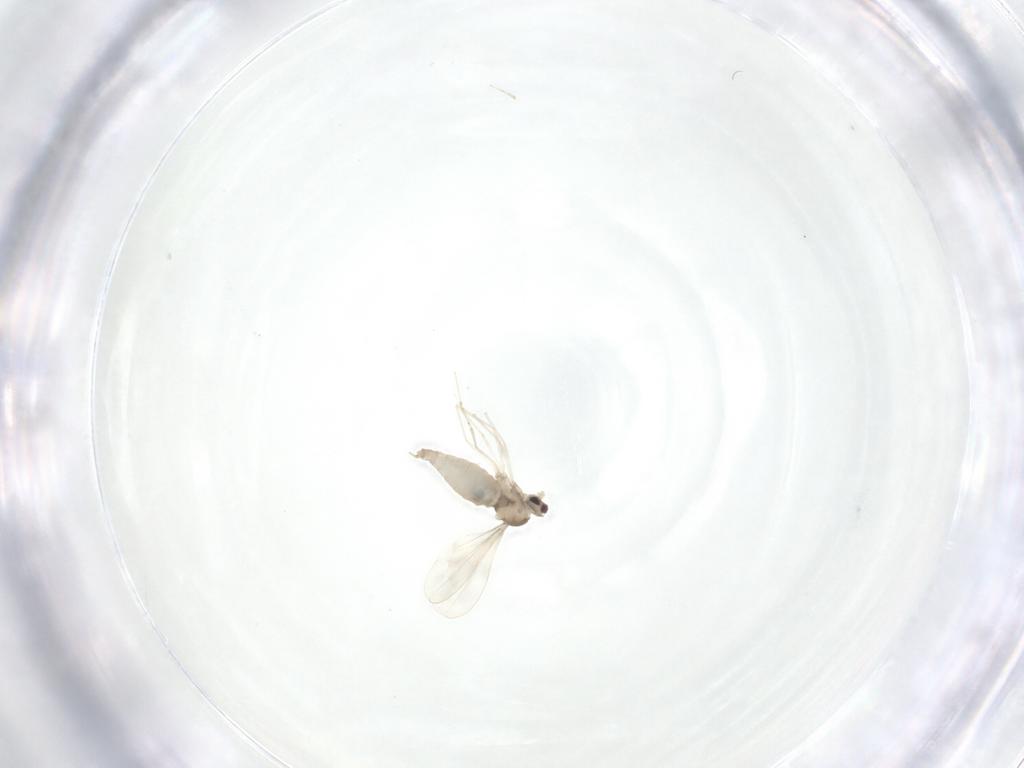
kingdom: Animalia
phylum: Arthropoda
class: Insecta
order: Diptera
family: Cecidomyiidae
